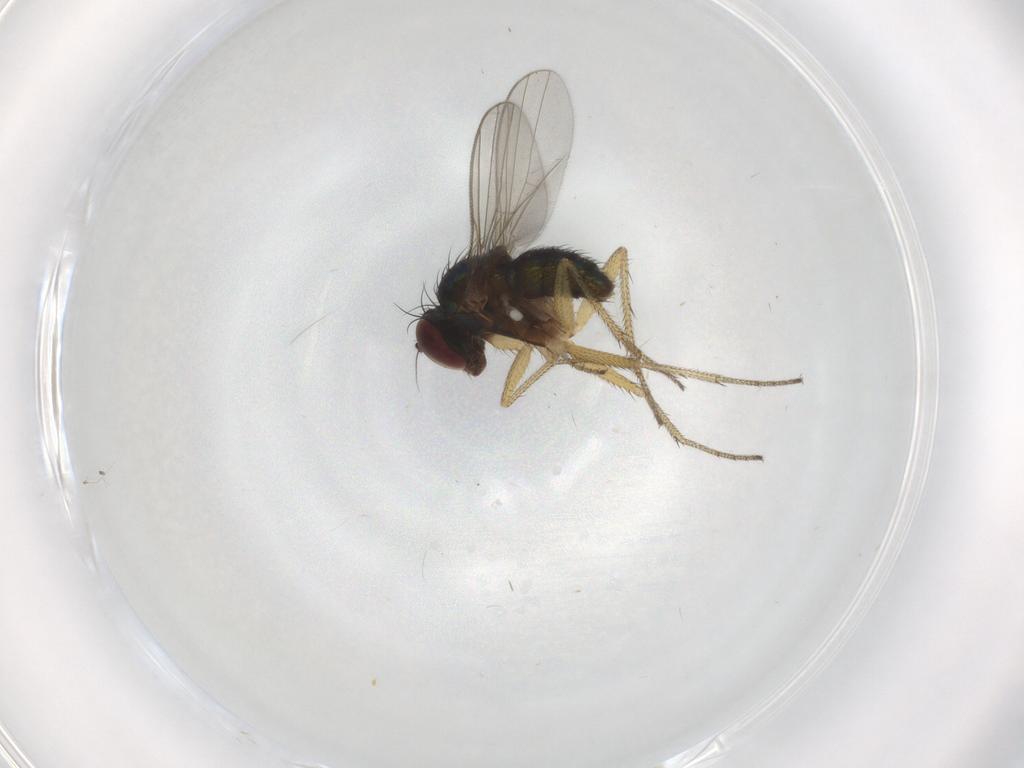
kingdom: Animalia
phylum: Arthropoda
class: Insecta
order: Diptera
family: Dolichopodidae
